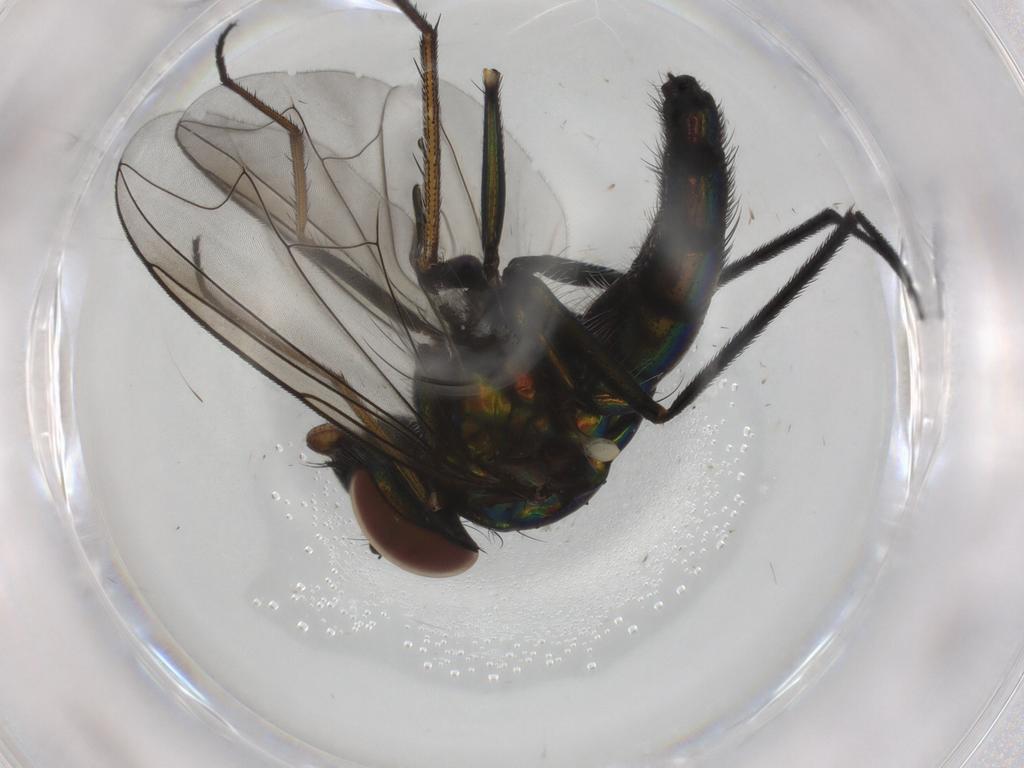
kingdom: Animalia
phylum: Arthropoda
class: Insecta
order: Diptera
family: Dolichopodidae
